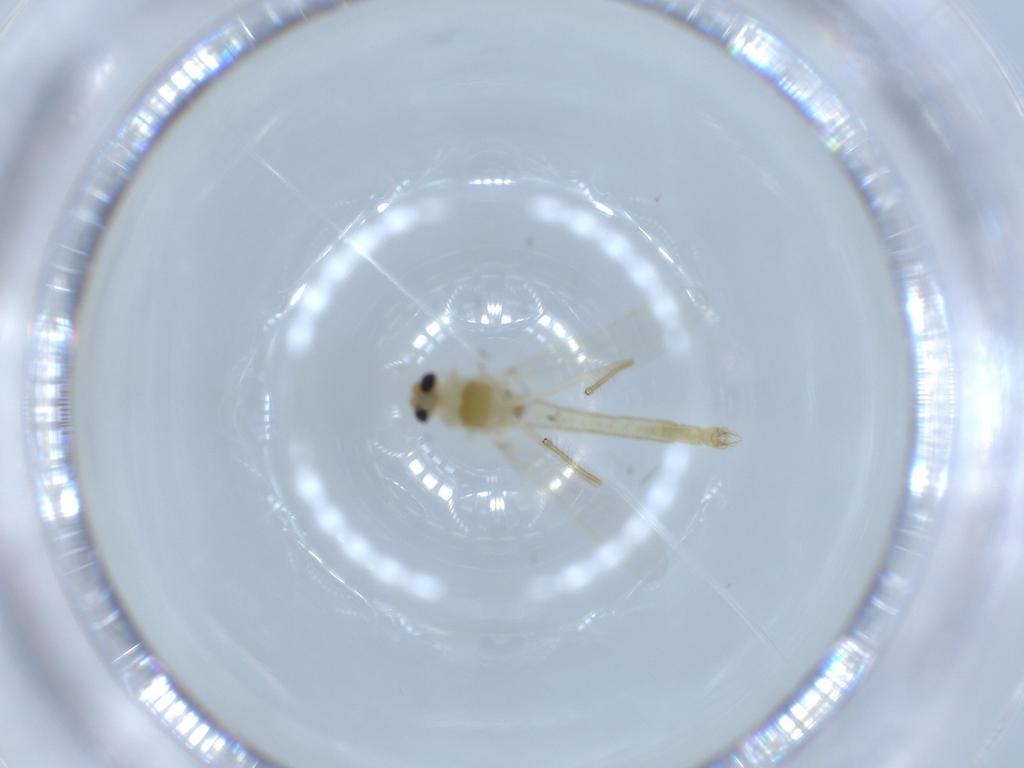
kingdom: Animalia
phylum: Arthropoda
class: Insecta
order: Diptera
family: Chironomidae
